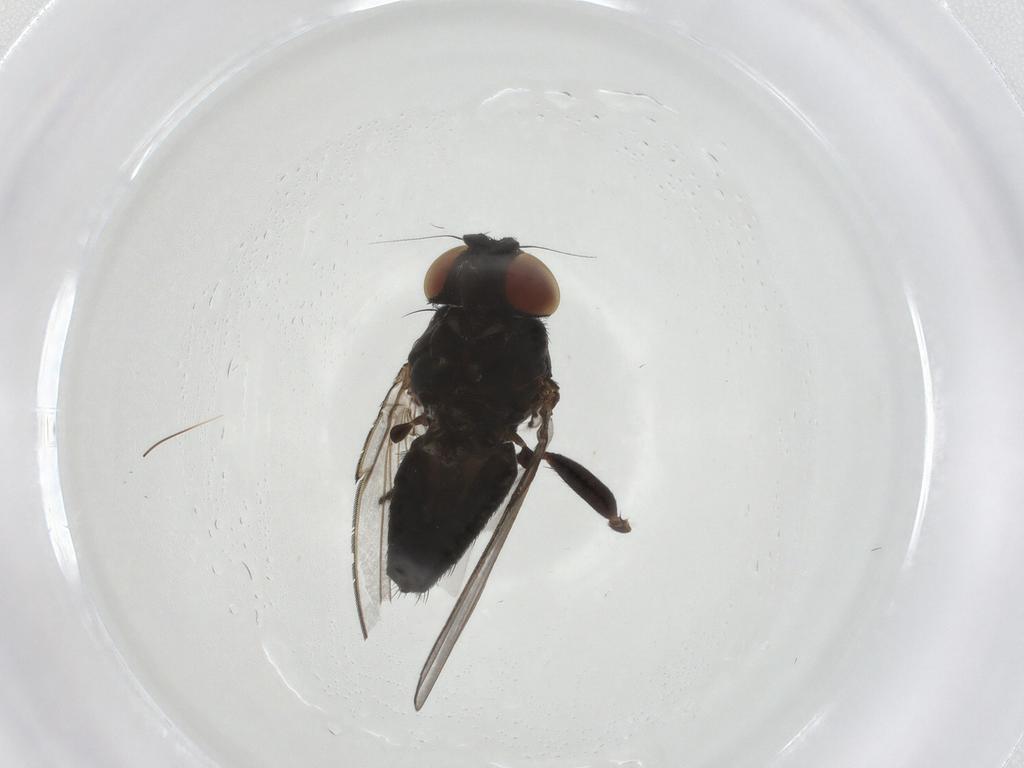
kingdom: Animalia
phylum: Arthropoda
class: Insecta
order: Diptera
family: Milichiidae
